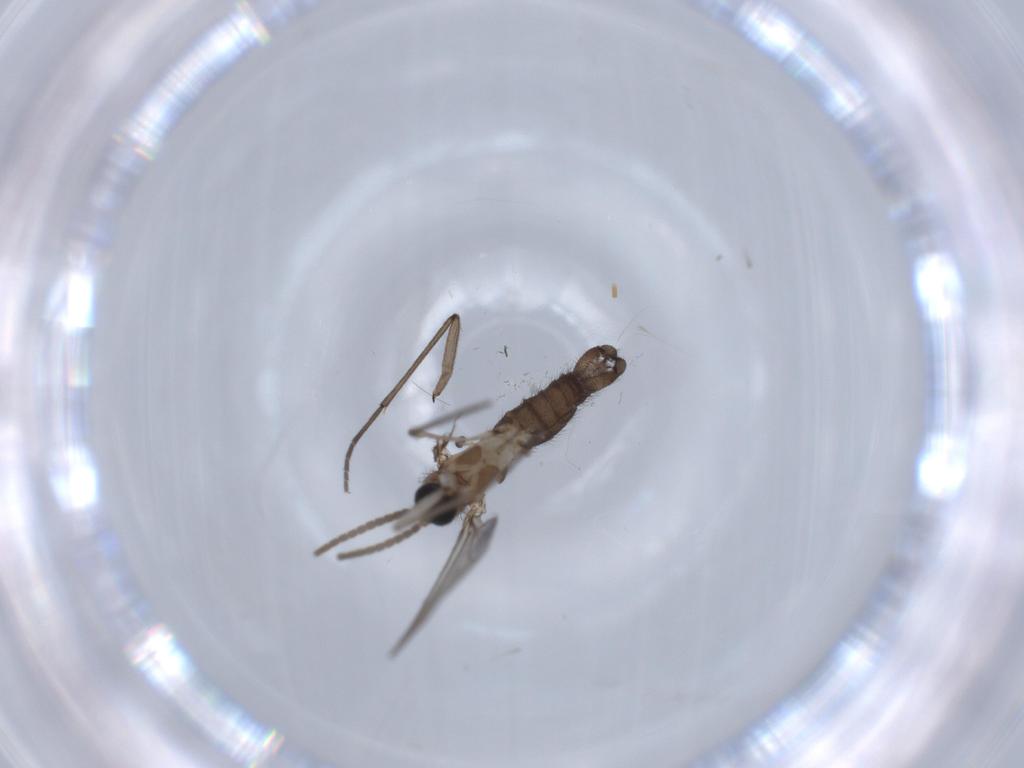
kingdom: Animalia
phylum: Arthropoda
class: Insecta
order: Diptera
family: Sciaridae
